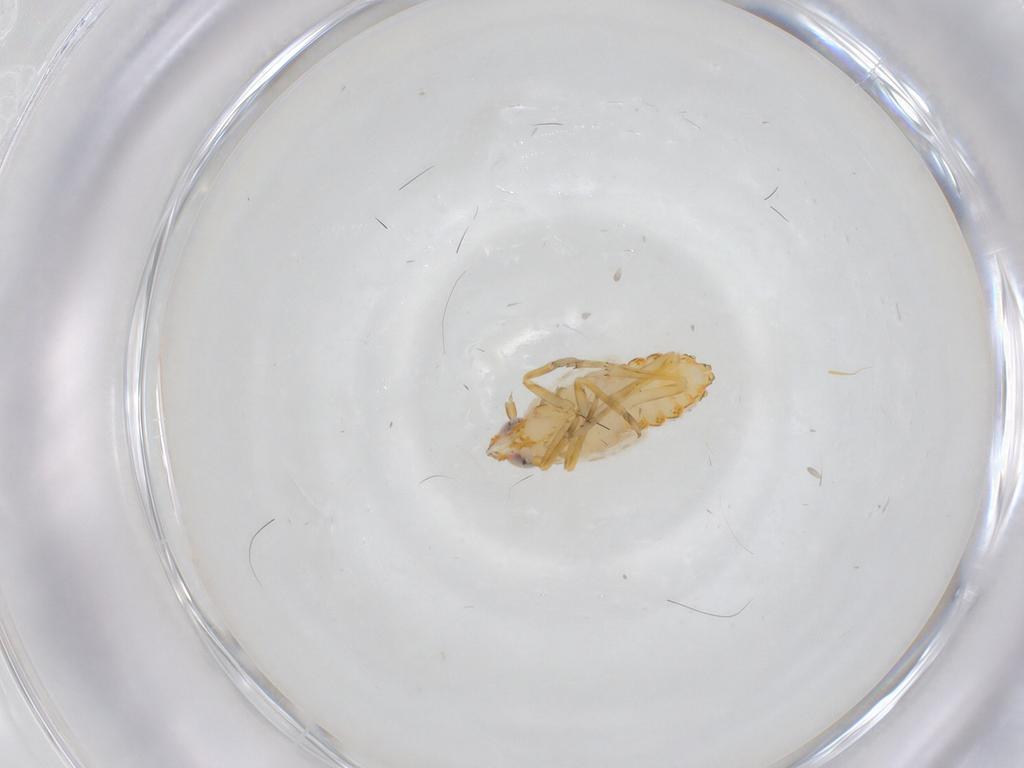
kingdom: Animalia
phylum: Arthropoda
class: Insecta
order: Hemiptera
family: Delphacidae
